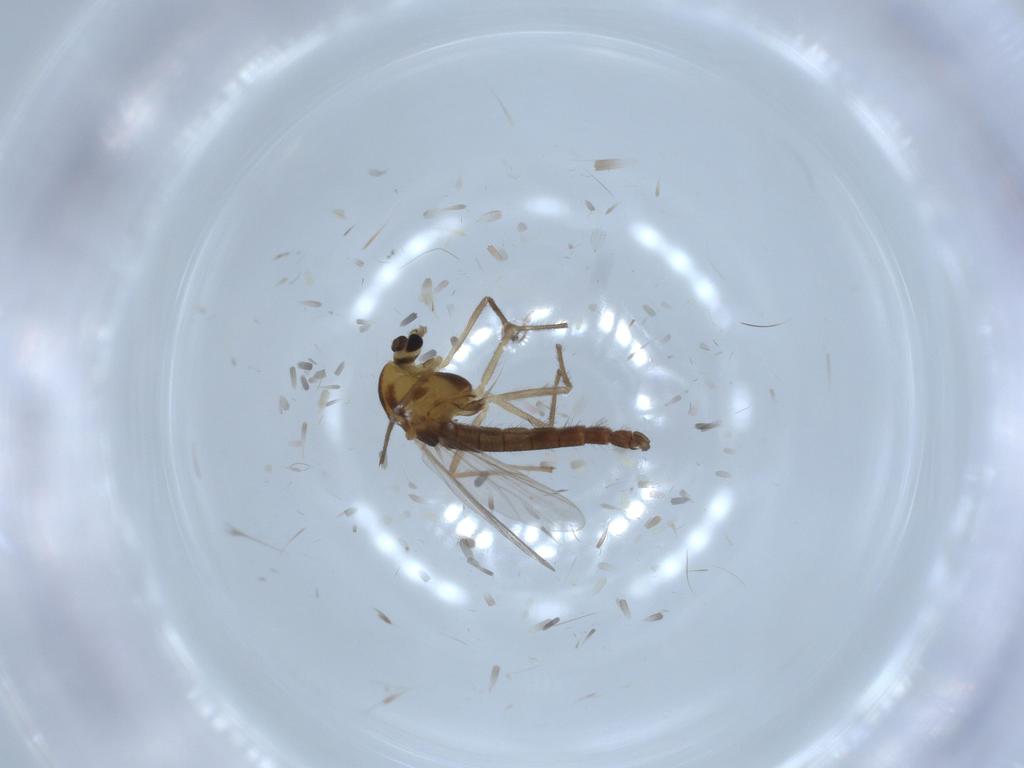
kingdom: Animalia
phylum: Arthropoda
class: Insecta
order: Diptera
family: Chironomidae
